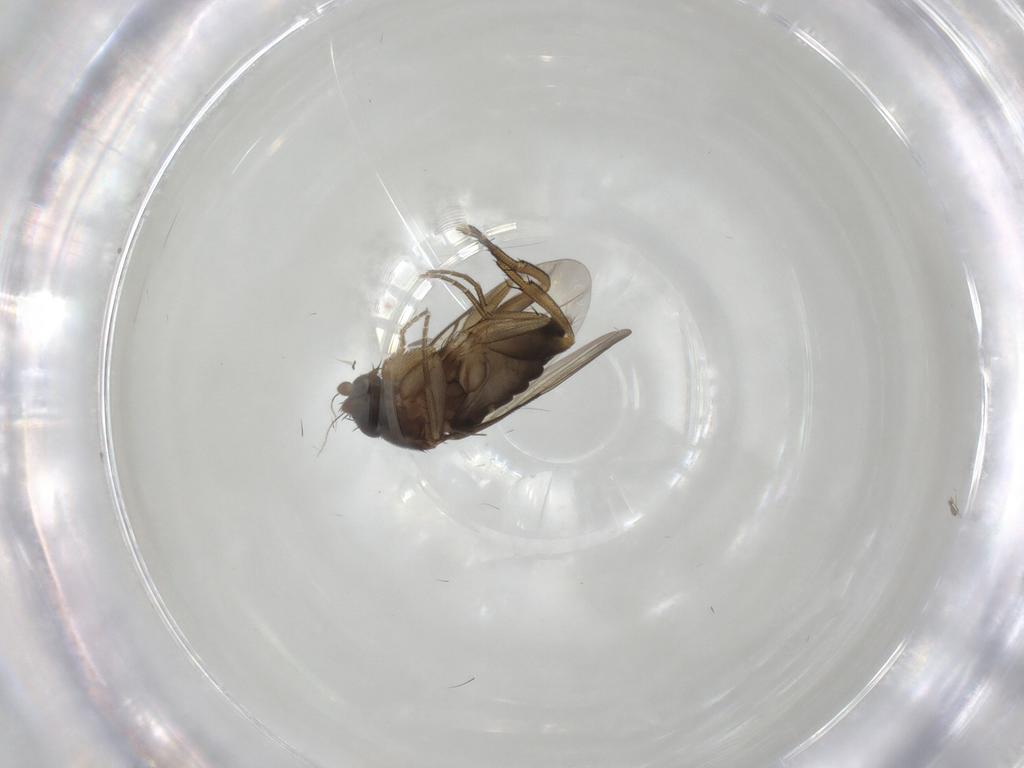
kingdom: Animalia
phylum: Arthropoda
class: Insecta
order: Diptera
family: Phoridae
